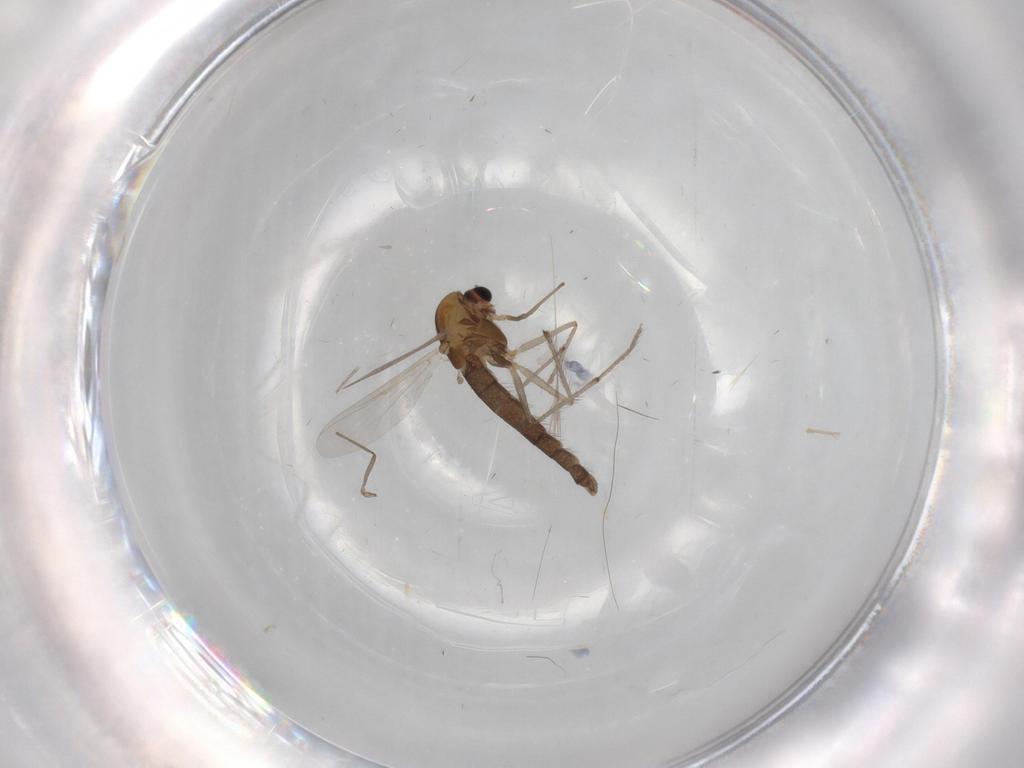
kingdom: Animalia
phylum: Arthropoda
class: Insecta
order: Diptera
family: Chironomidae
